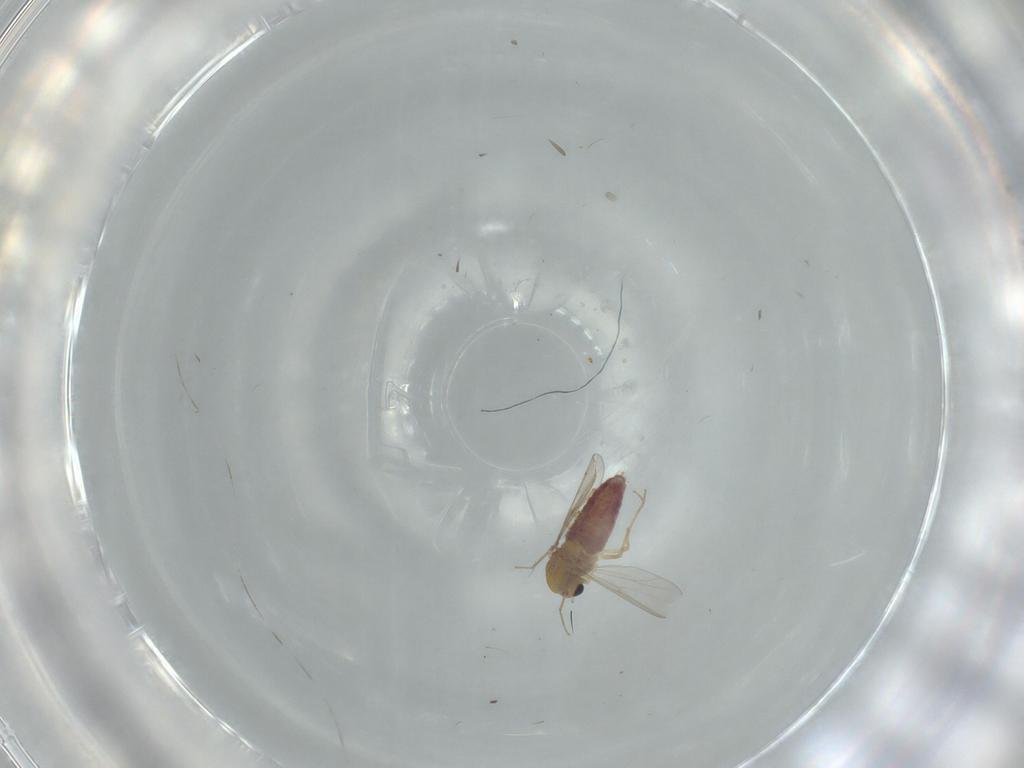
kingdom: Animalia
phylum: Arthropoda
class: Insecta
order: Diptera
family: Chironomidae
